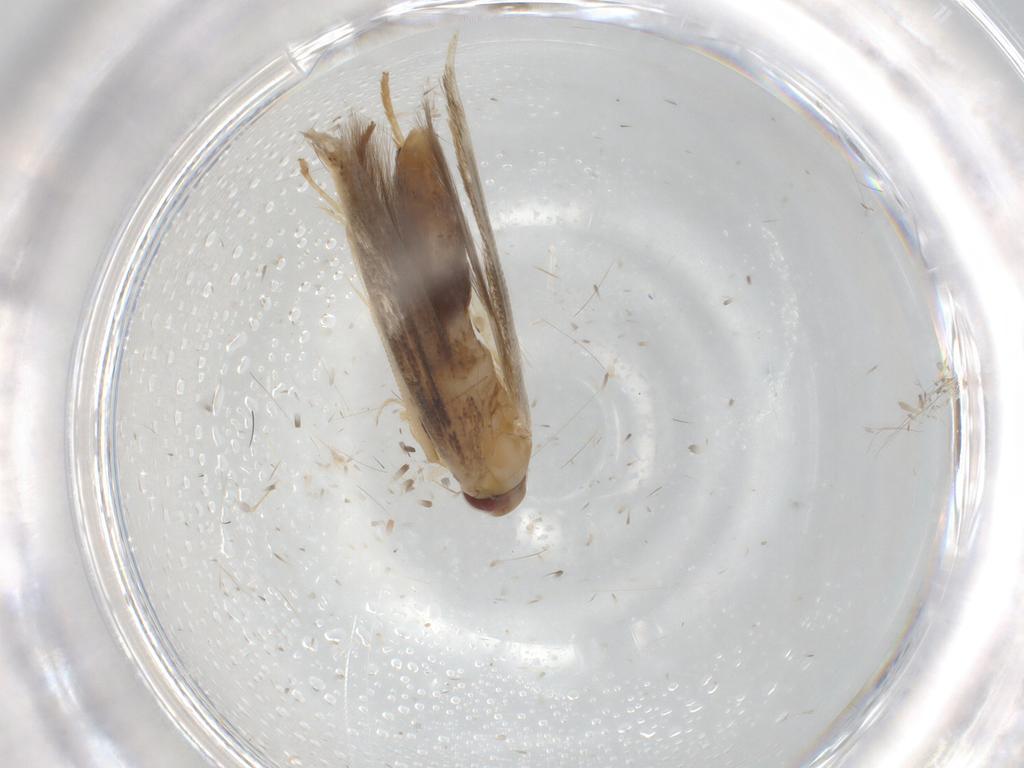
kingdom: Animalia
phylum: Arthropoda
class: Insecta
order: Lepidoptera
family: Cosmopterigidae
